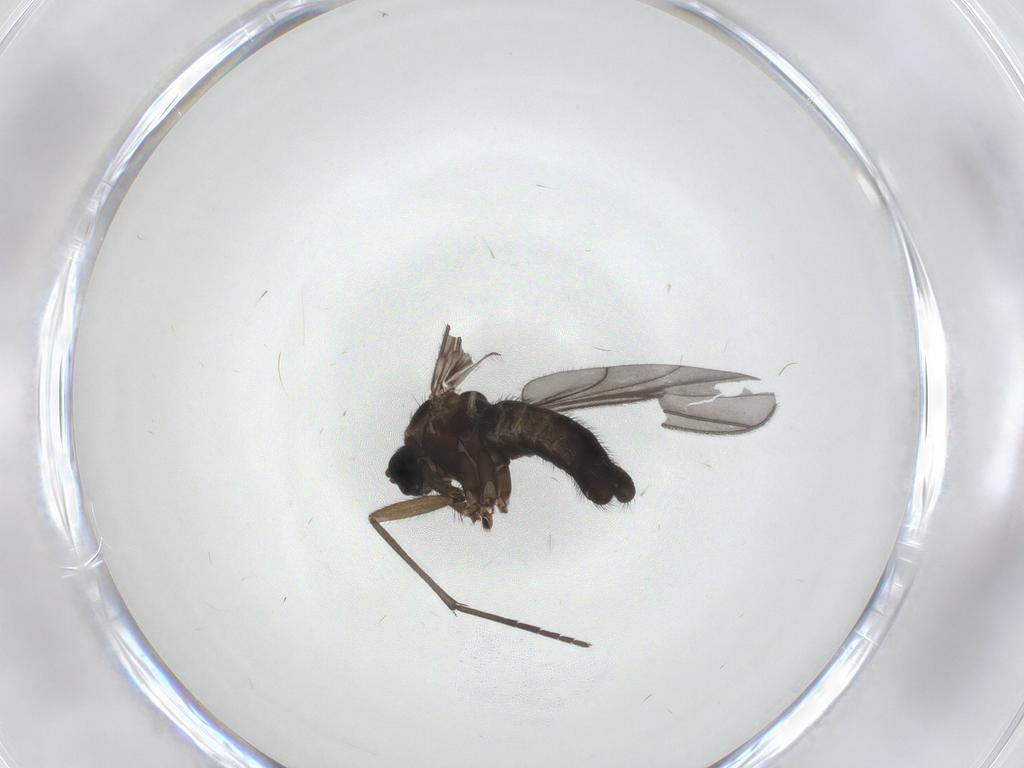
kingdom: Animalia
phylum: Arthropoda
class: Insecta
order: Diptera
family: Sciaridae
